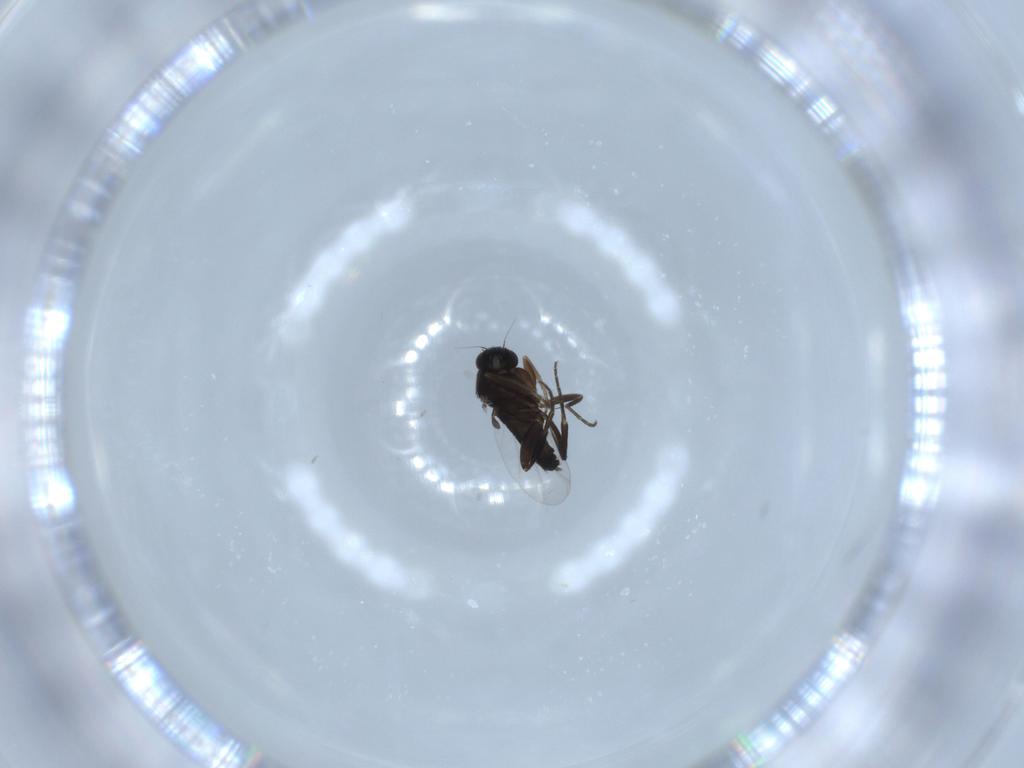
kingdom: Animalia
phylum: Arthropoda
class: Insecta
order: Diptera
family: Phoridae
